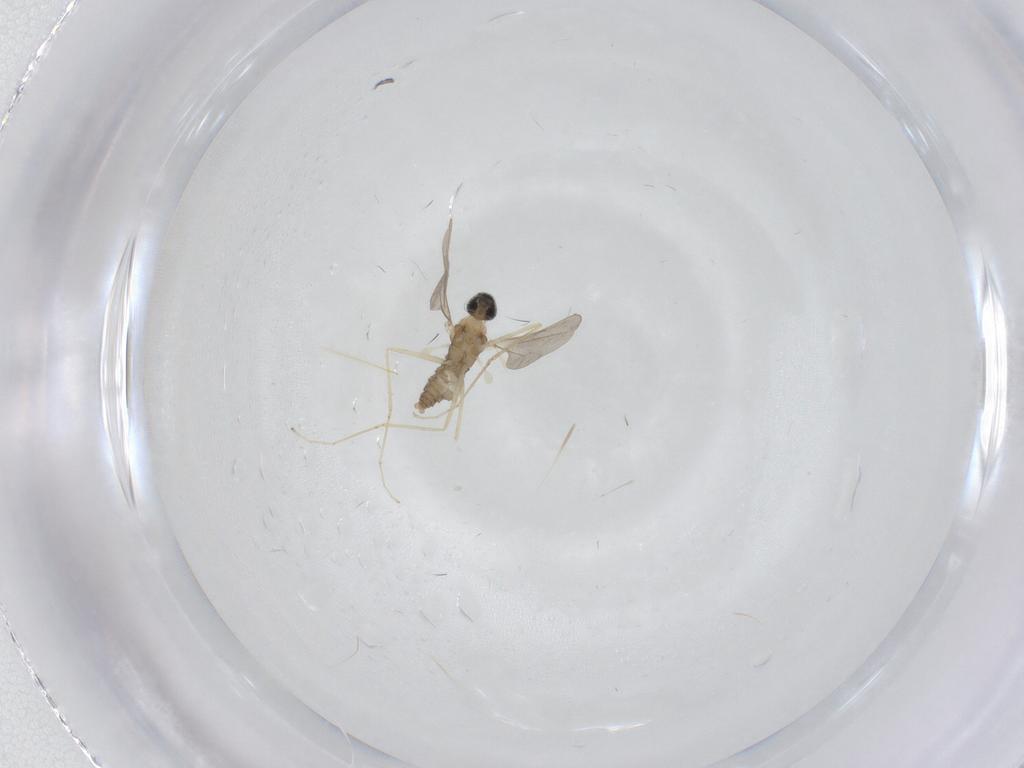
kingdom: Animalia
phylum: Arthropoda
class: Insecta
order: Diptera
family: Cecidomyiidae
